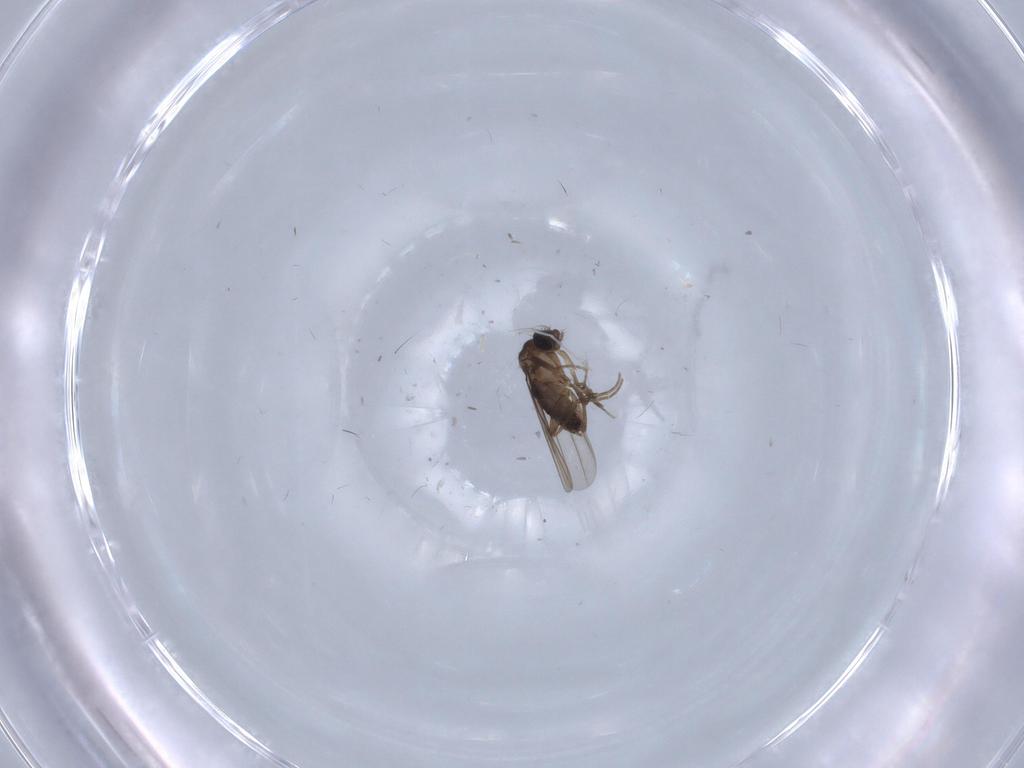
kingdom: Animalia
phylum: Arthropoda
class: Insecta
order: Diptera
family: Phoridae
